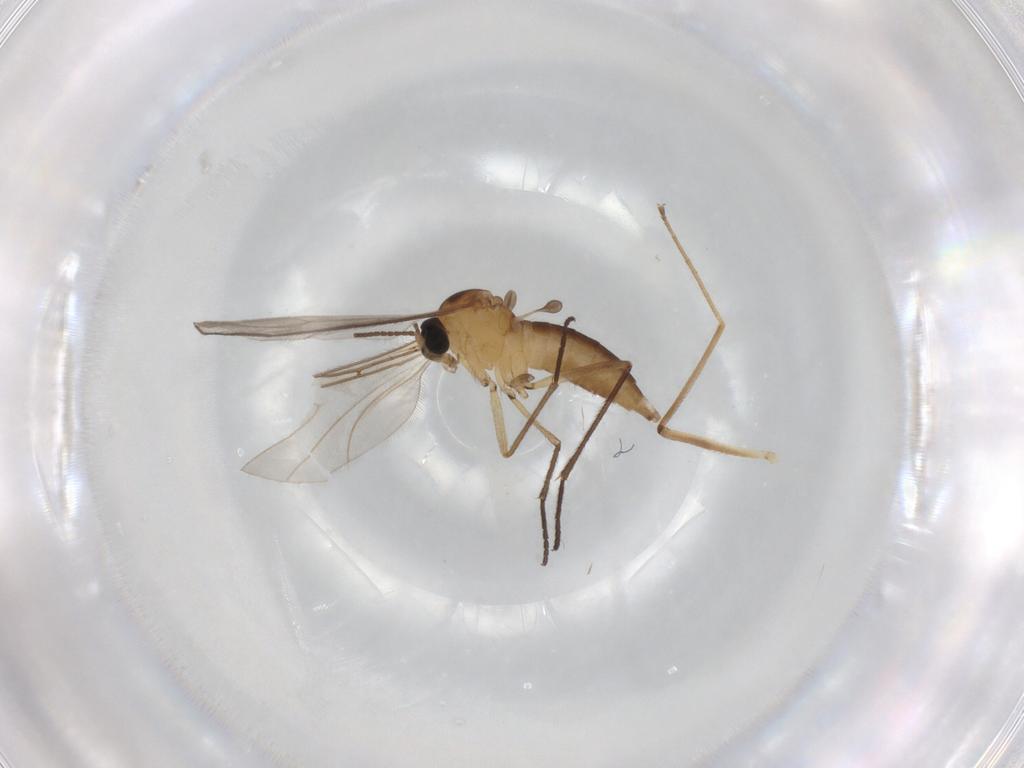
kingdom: Animalia
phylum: Arthropoda
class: Insecta
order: Diptera
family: Sciaridae
